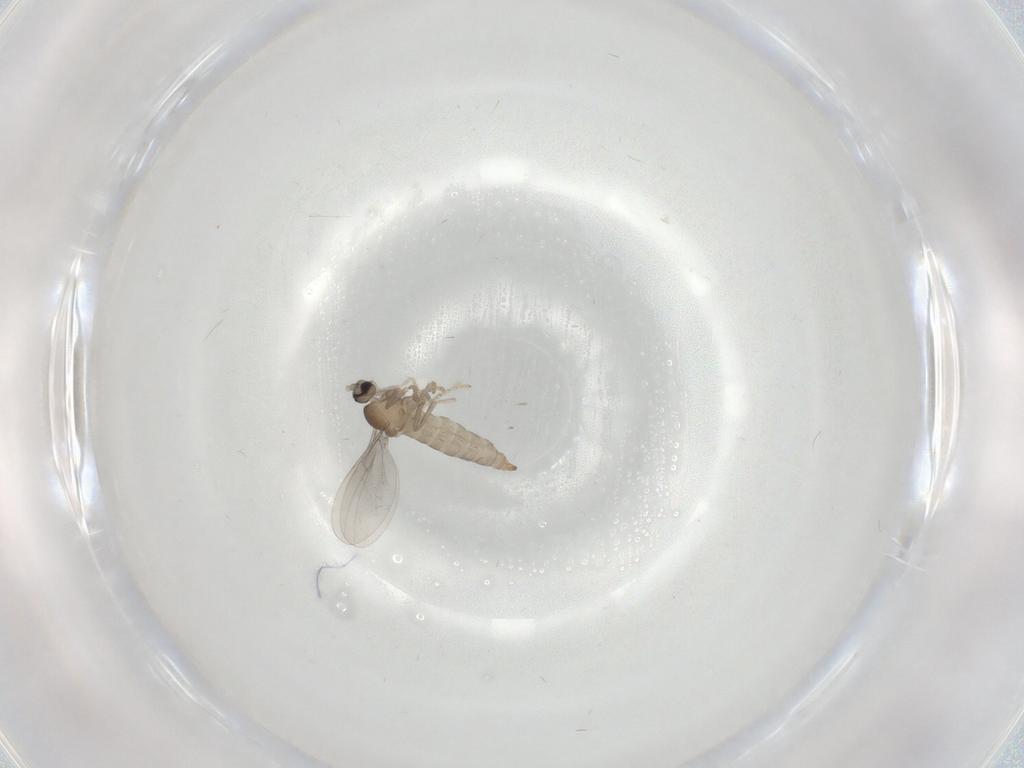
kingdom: Animalia
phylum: Arthropoda
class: Insecta
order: Diptera
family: Cecidomyiidae
